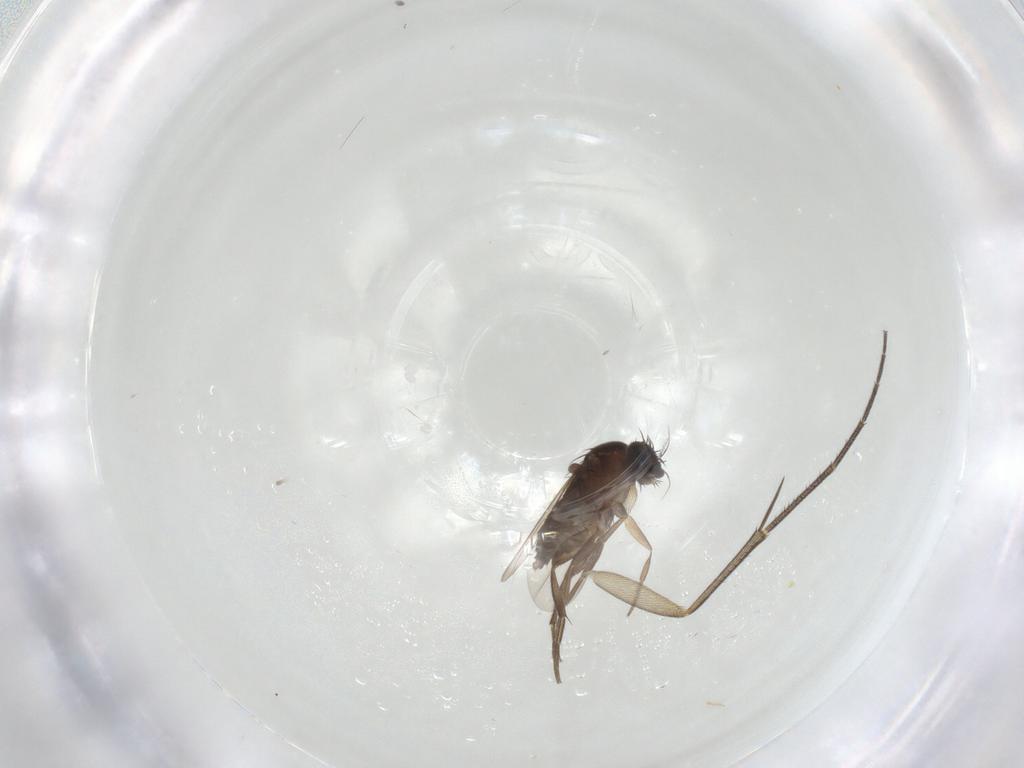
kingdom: Animalia
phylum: Arthropoda
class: Insecta
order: Diptera
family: Phoridae
